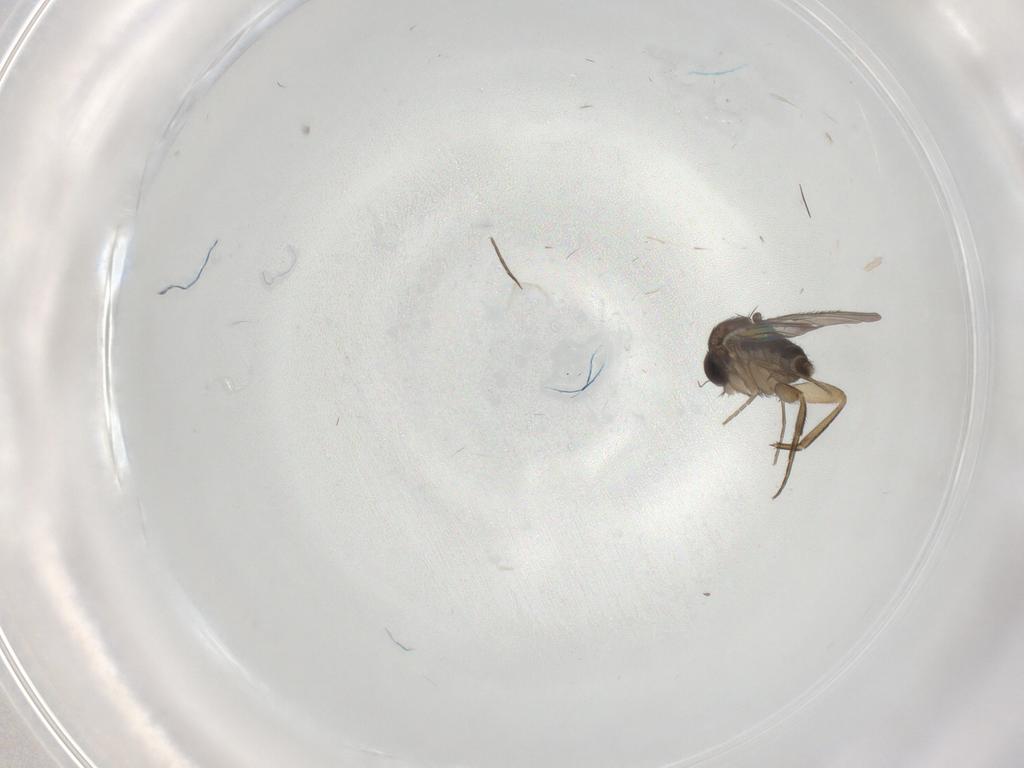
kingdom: Animalia
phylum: Arthropoda
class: Insecta
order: Diptera
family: Phoridae
